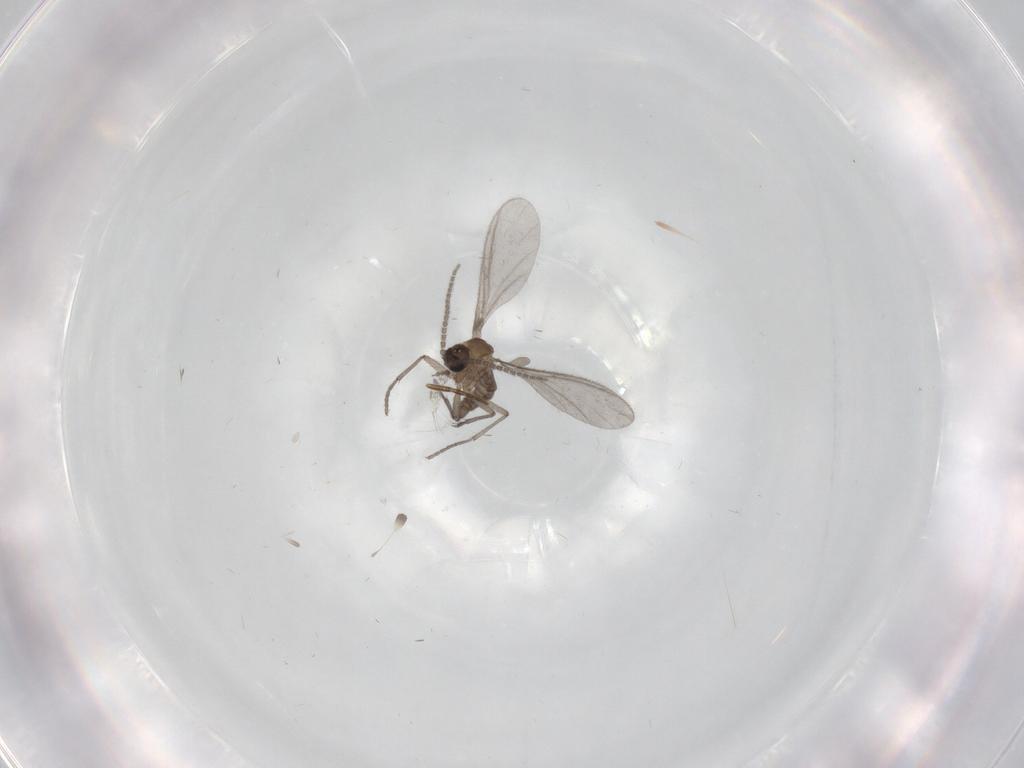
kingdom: Animalia
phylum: Arthropoda
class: Insecta
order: Diptera
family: Sciaridae
